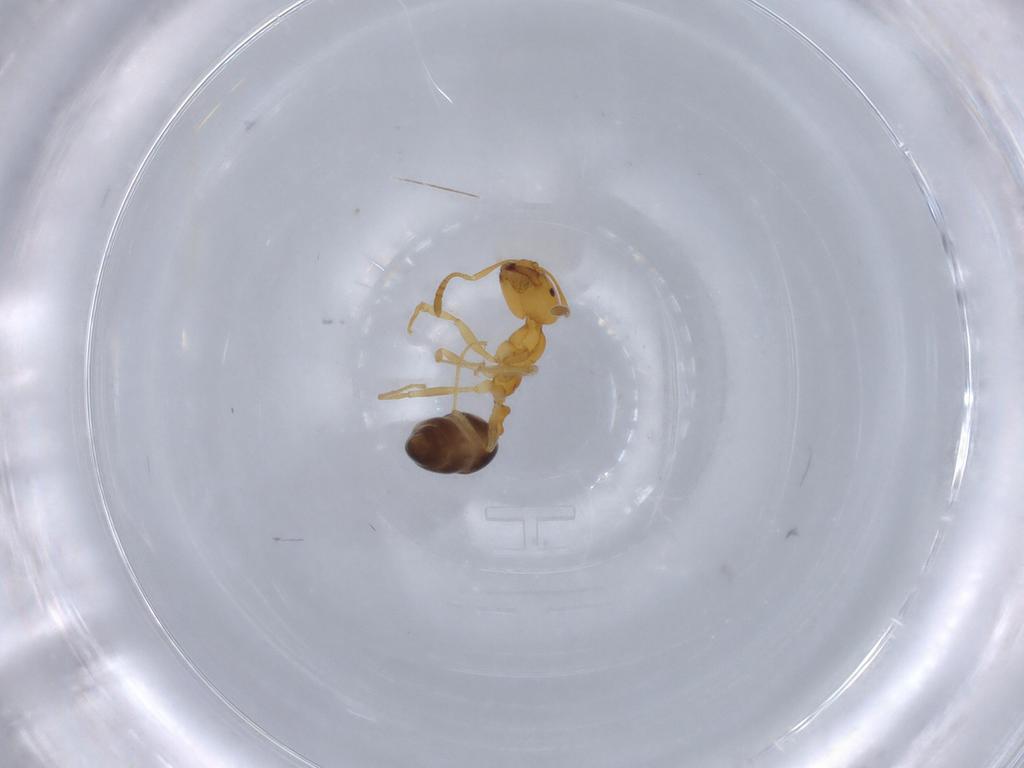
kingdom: Animalia
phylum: Arthropoda
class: Insecta
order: Hymenoptera
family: Formicidae
